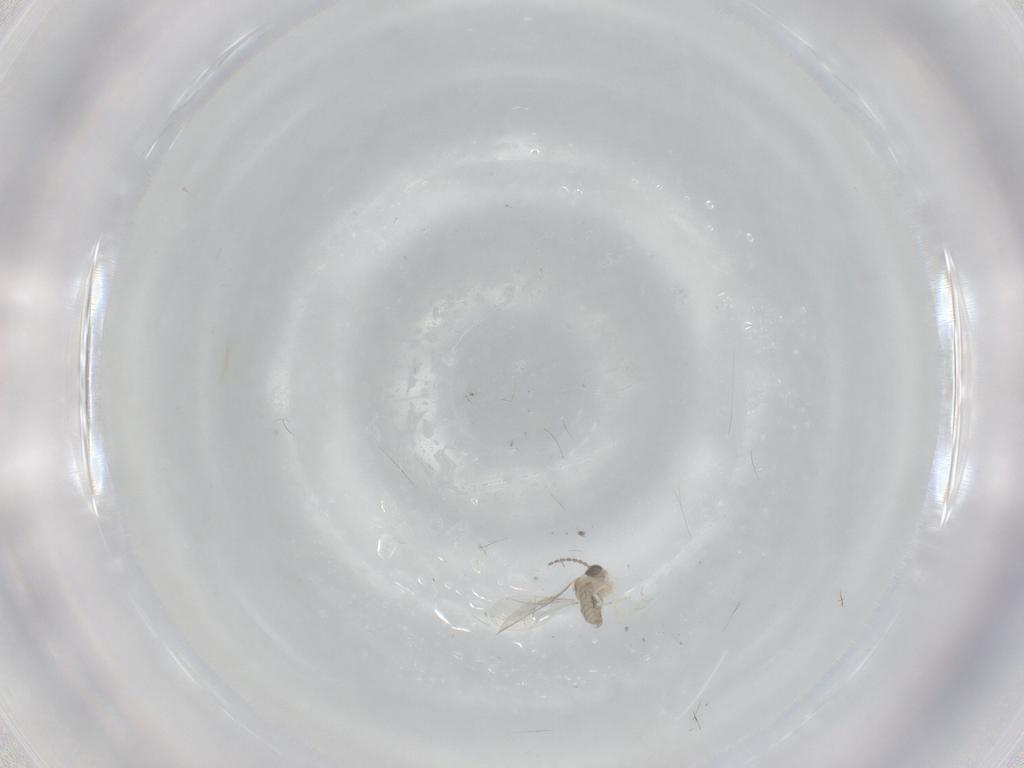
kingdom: Animalia
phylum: Arthropoda
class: Insecta
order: Diptera
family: Cecidomyiidae
